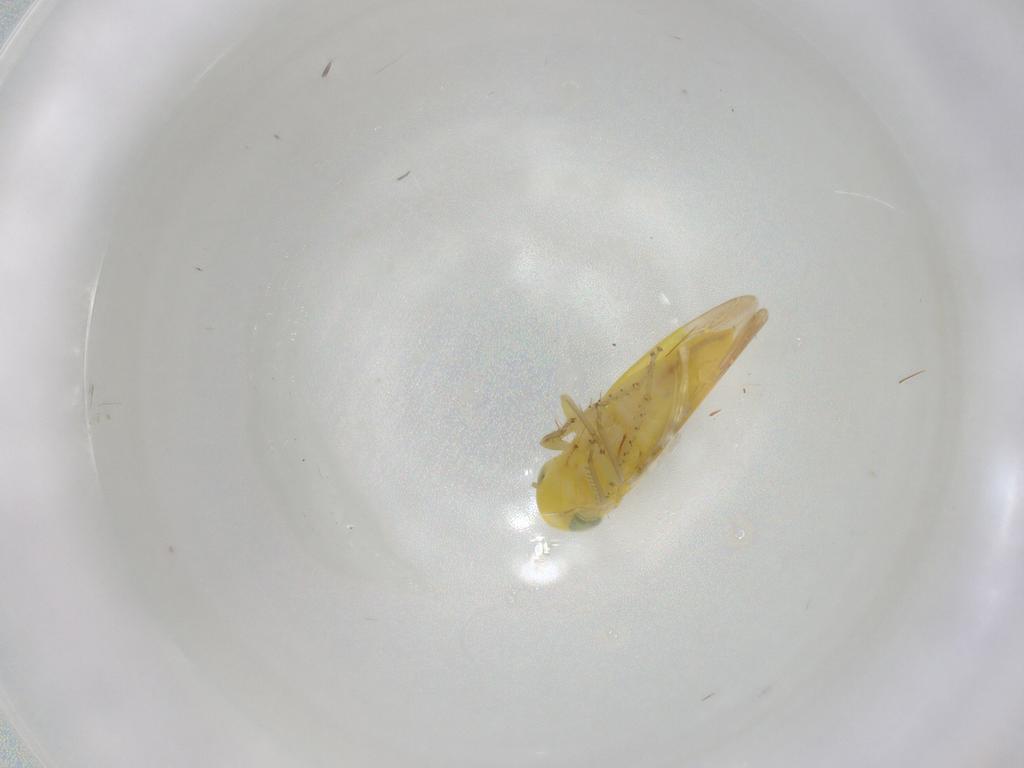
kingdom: Animalia
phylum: Arthropoda
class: Insecta
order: Hemiptera
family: Cicadellidae
